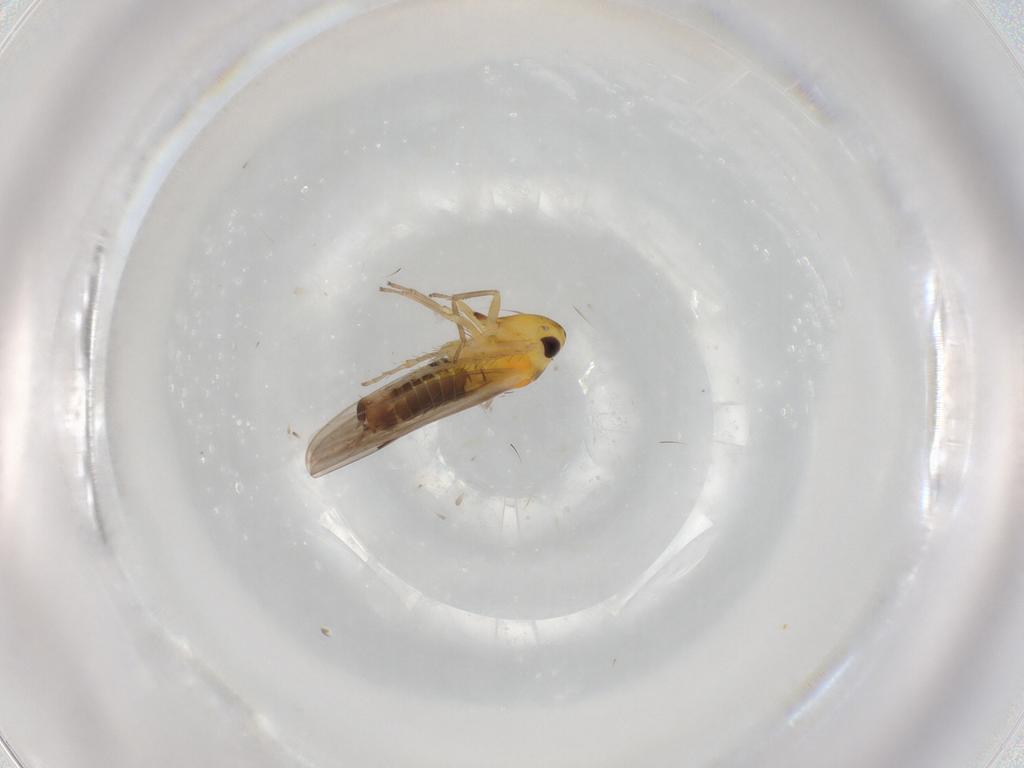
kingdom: Animalia
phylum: Arthropoda
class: Insecta
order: Hemiptera
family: Cicadellidae
